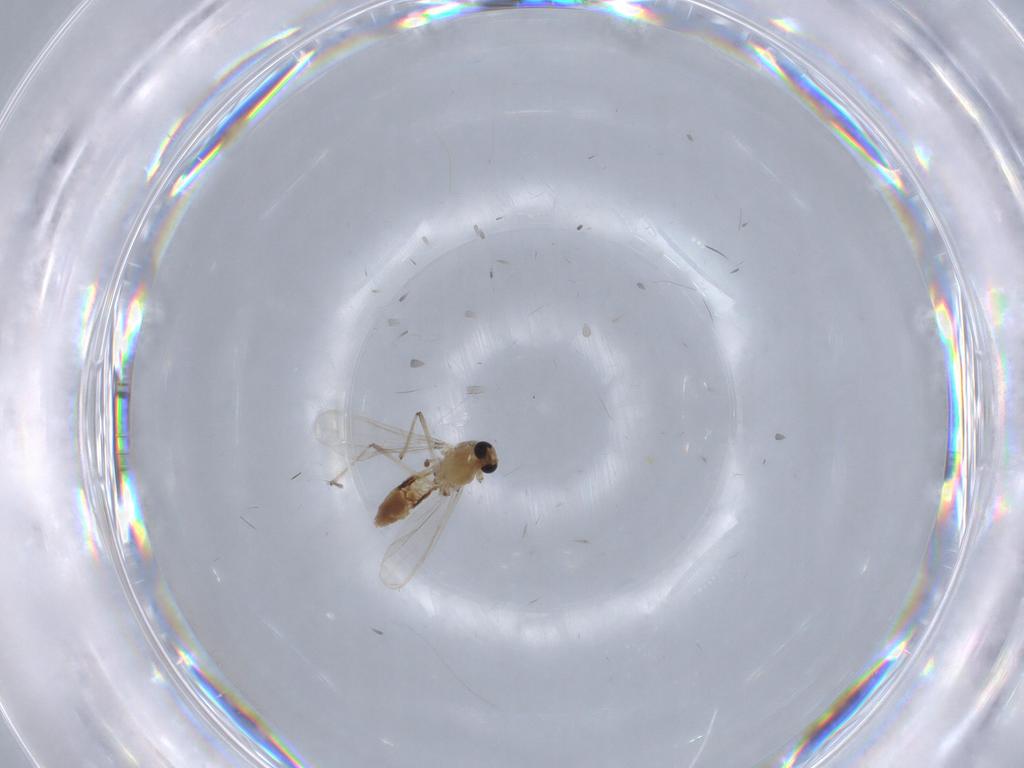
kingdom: Animalia
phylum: Arthropoda
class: Insecta
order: Diptera
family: Chironomidae
